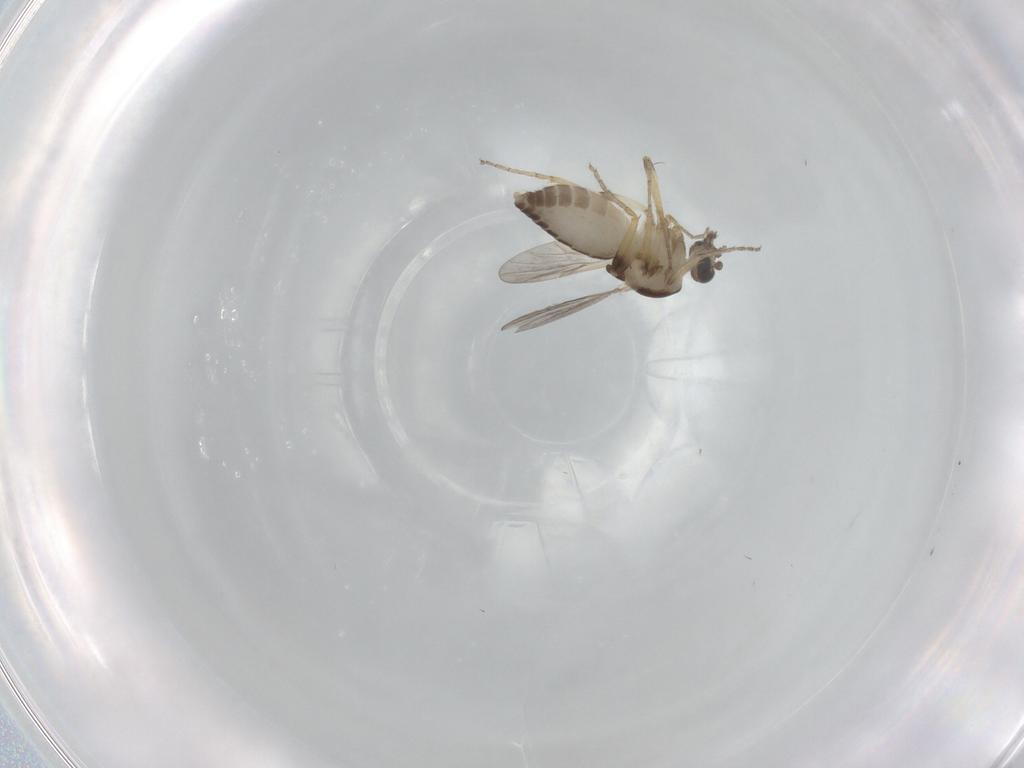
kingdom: Animalia
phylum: Arthropoda
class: Insecta
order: Diptera
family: Ceratopogonidae
